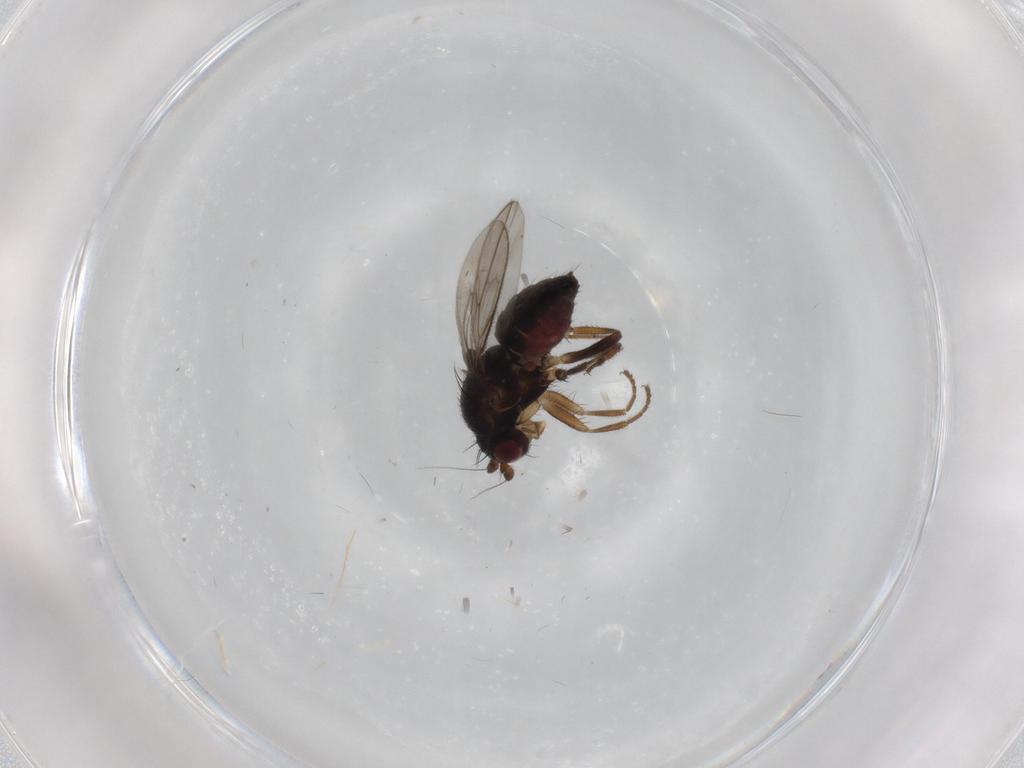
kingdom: Animalia
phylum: Arthropoda
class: Insecta
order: Diptera
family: Sphaeroceridae
